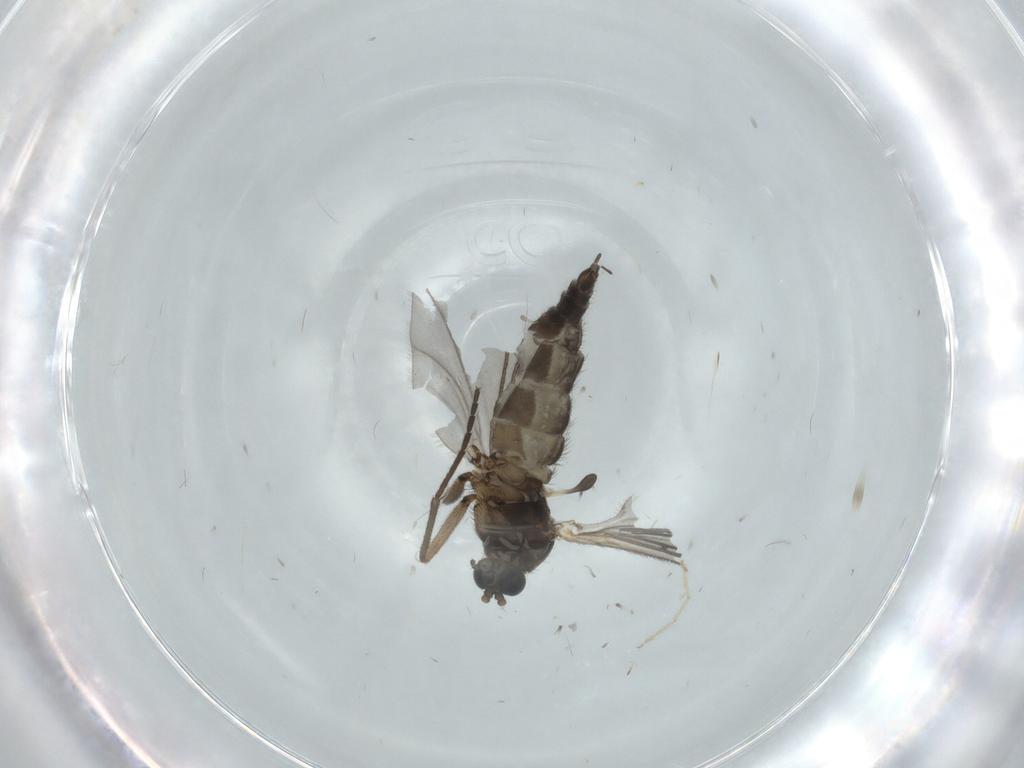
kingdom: Animalia
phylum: Arthropoda
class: Insecta
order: Diptera
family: Sciaridae
